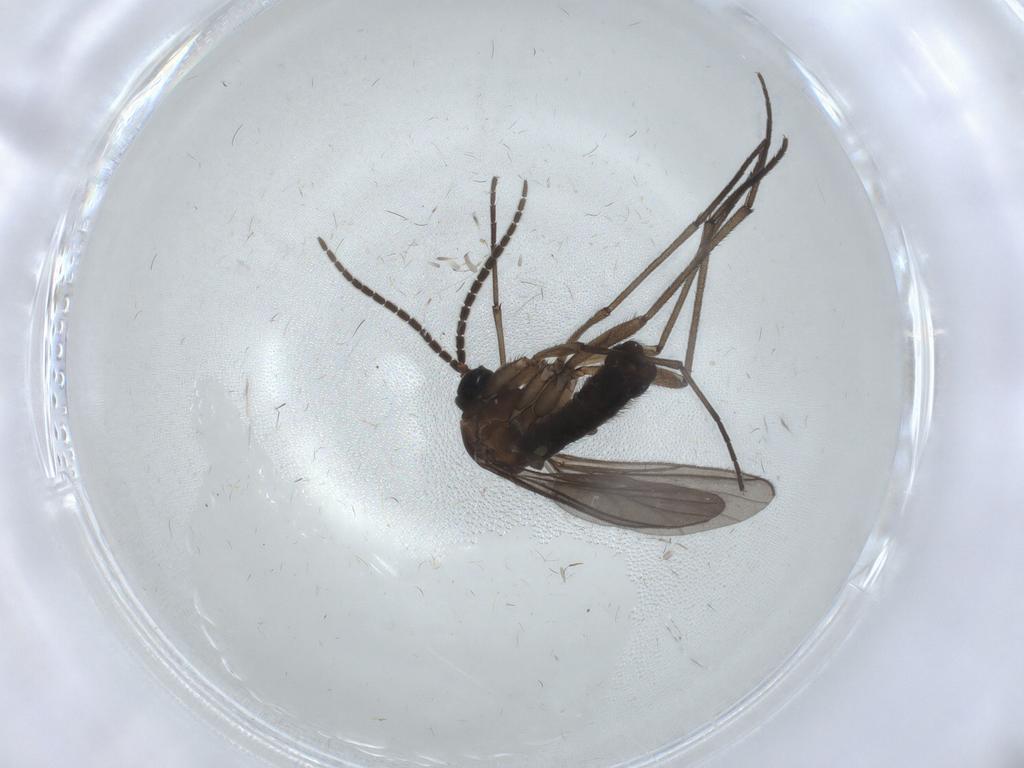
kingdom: Animalia
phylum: Arthropoda
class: Insecta
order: Diptera
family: Sciaridae
